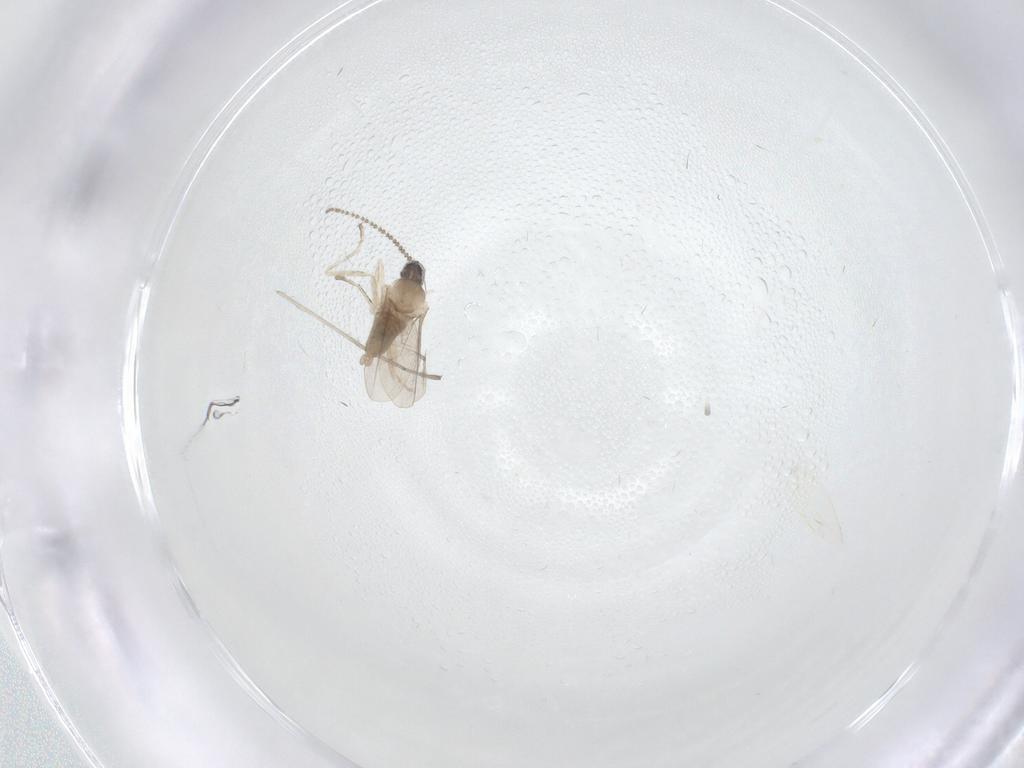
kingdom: Animalia
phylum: Arthropoda
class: Insecta
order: Diptera
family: Cecidomyiidae
